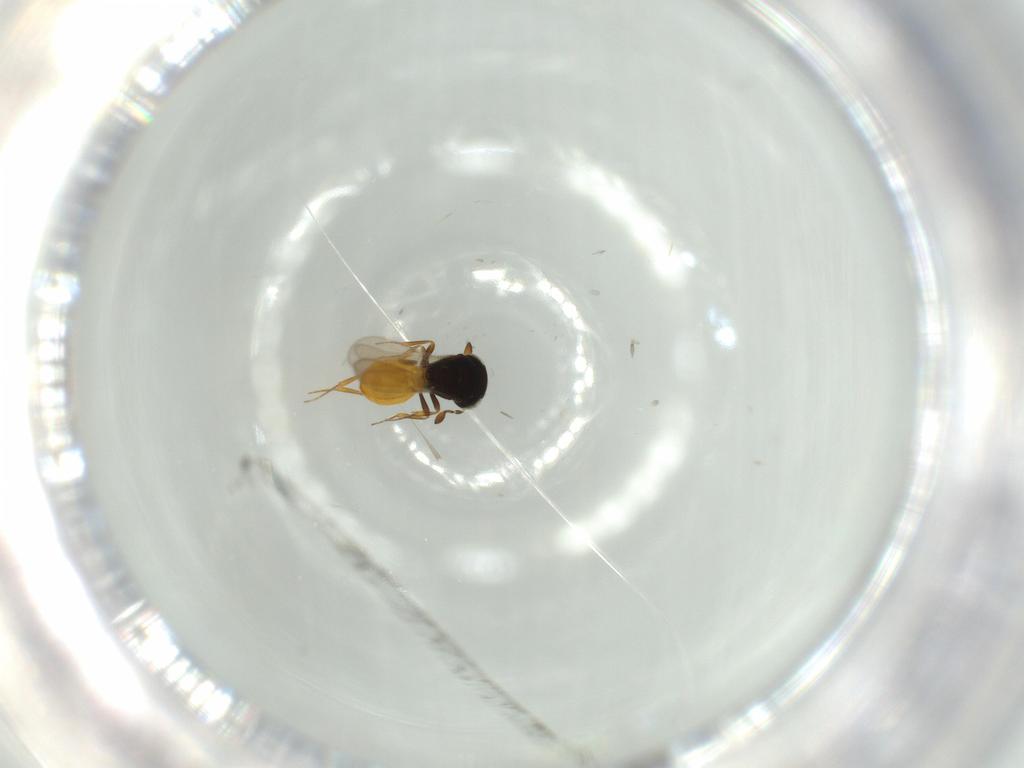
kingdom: Animalia
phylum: Arthropoda
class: Insecta
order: Hymenoptera
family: Scelionidae
